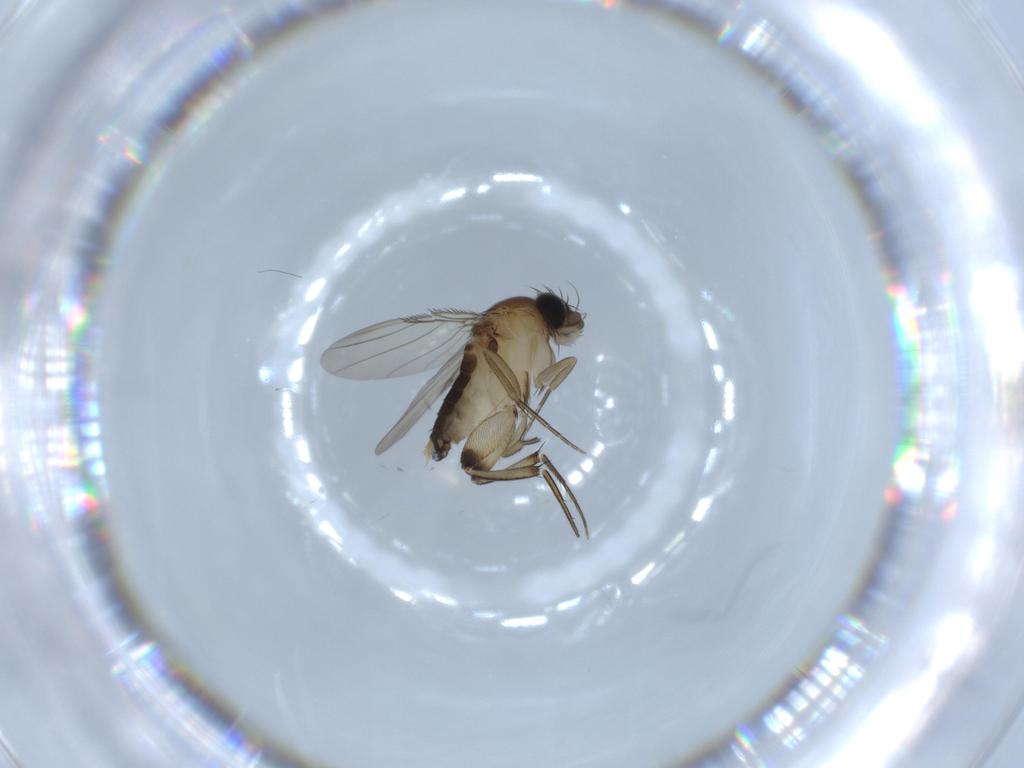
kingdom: Animalia
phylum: Arthropoda
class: Insecta
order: Diptera
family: Phoridae
